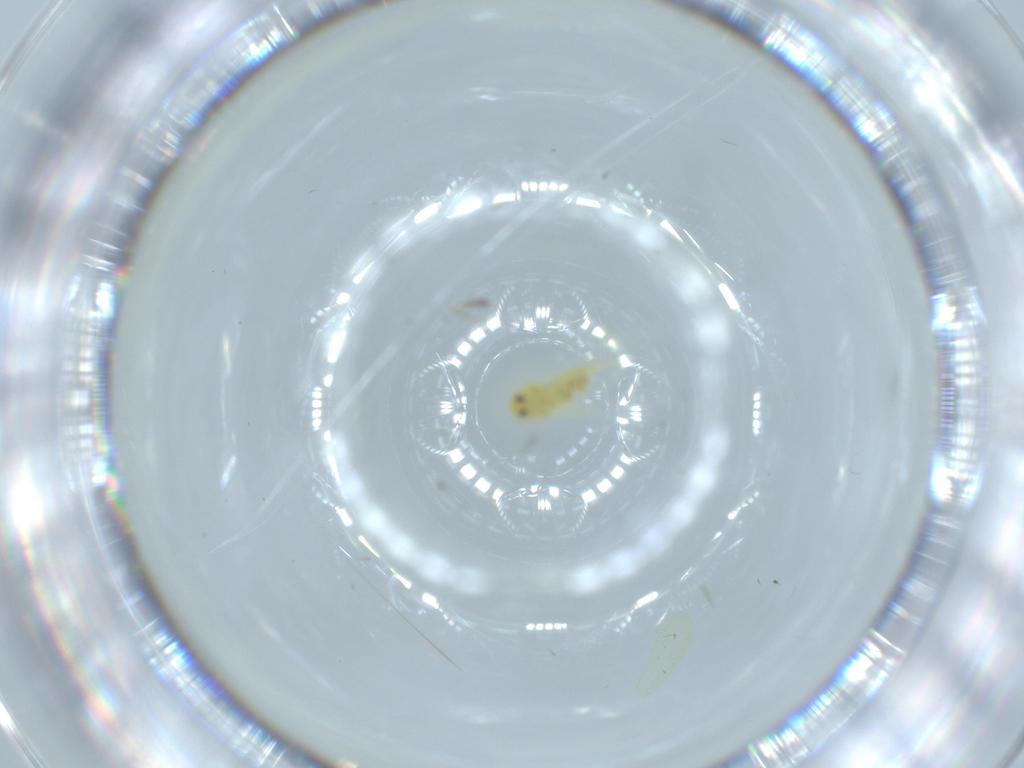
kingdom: Animalia
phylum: Arthropoda
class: Insecta
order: Hemiptera
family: Aleyrodidae
